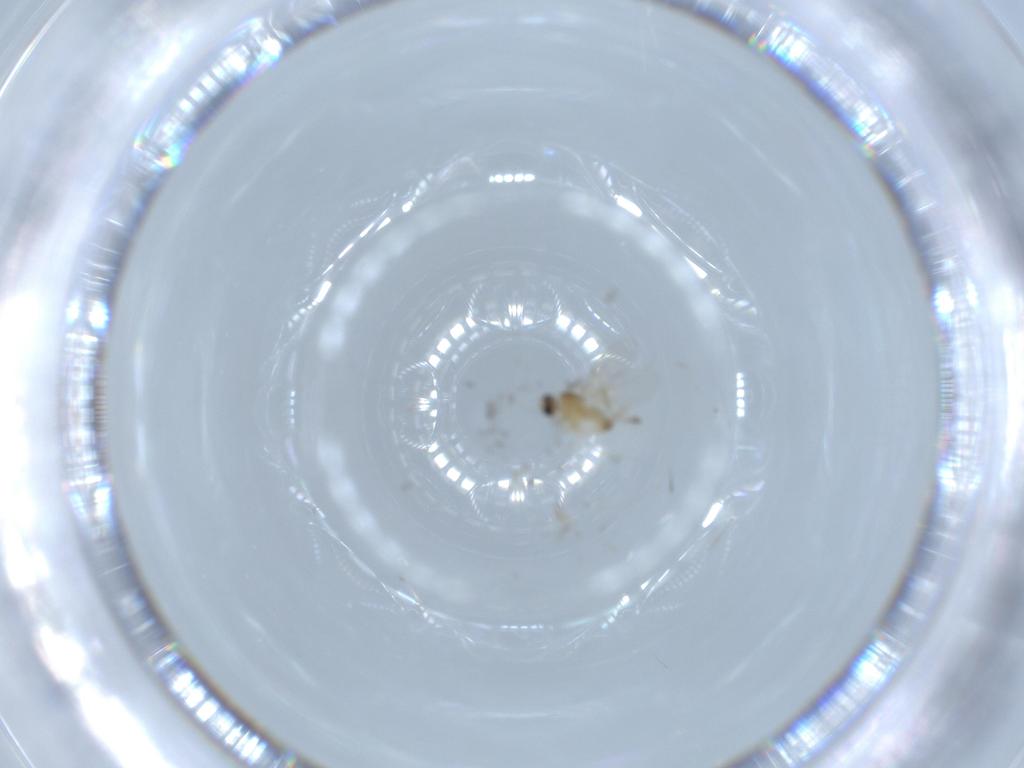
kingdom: Animalia
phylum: Arthropoda
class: Insecta
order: Diptera
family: Cecidomyiidae
